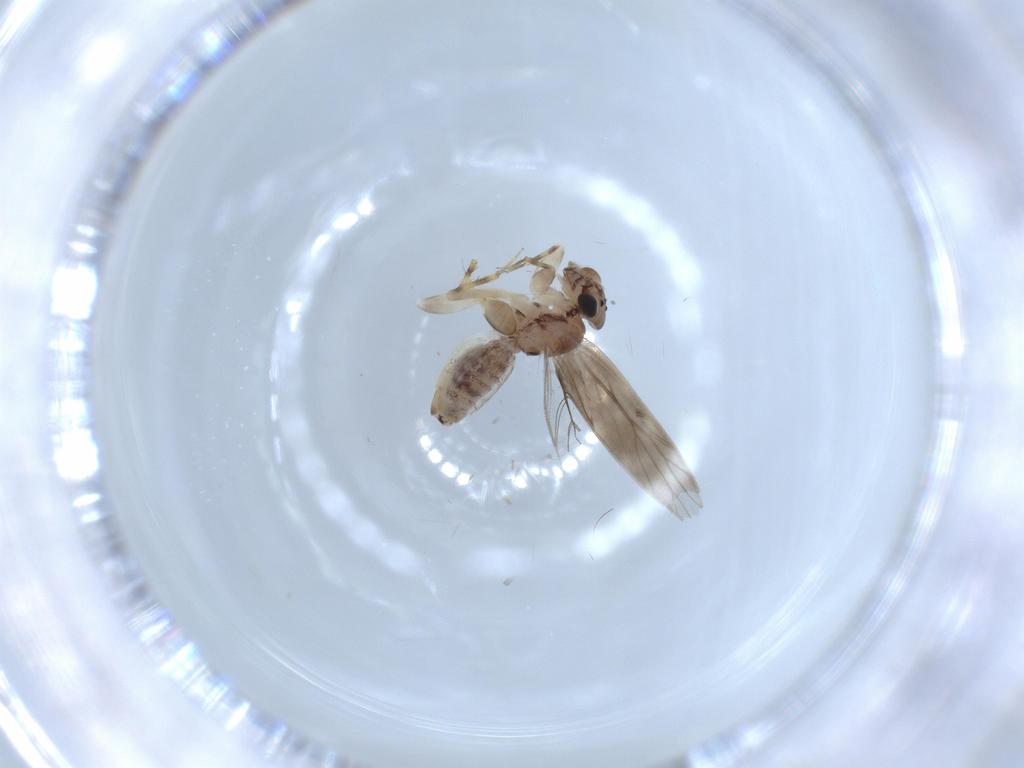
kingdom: Animalia
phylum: Arthropoda
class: Insecta
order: Psocodea
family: Lepidopsocidae
